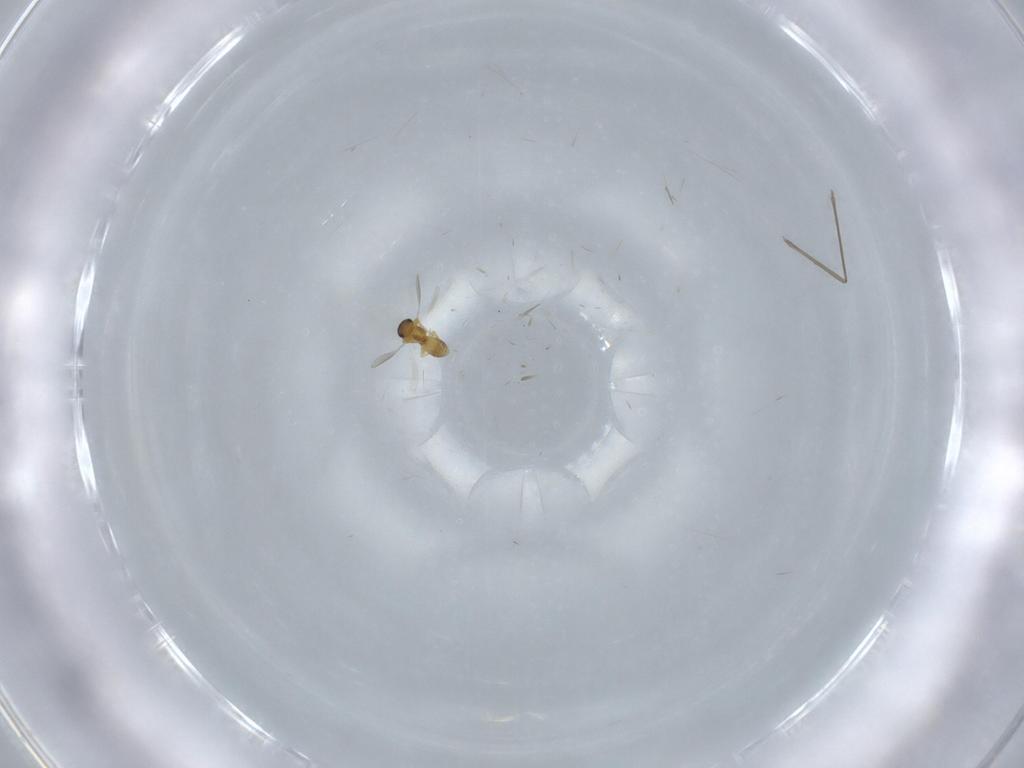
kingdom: Animalia
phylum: Arthropoda
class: Insecta
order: Hymenoptera
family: Platygastridae
